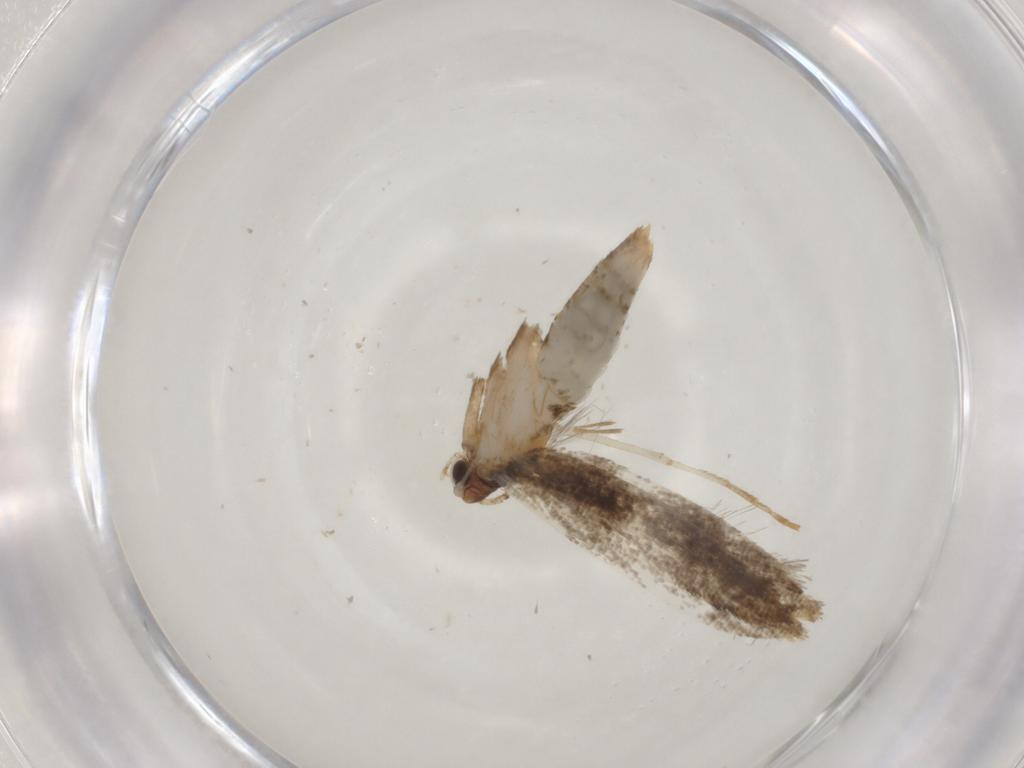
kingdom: Animalia
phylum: Arthropoda
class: Insecta
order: Lepidoptera
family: Tineidae
